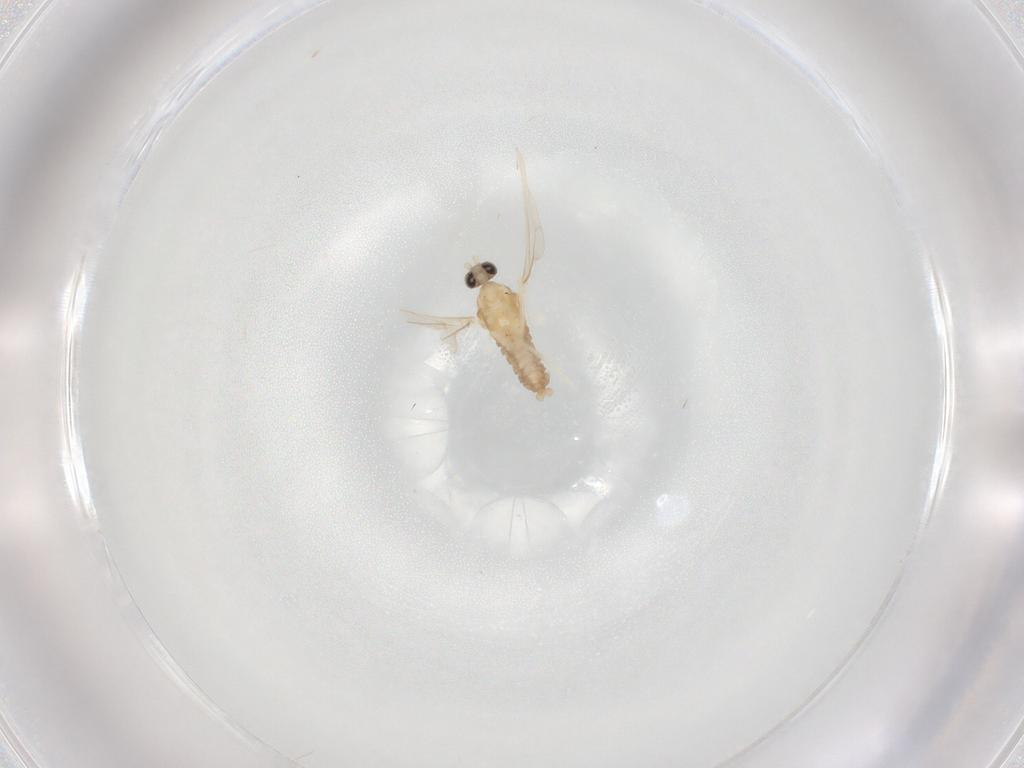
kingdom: Animalia
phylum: Arthropoda
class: Insecta
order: Diptera
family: Cecidomyiidae
